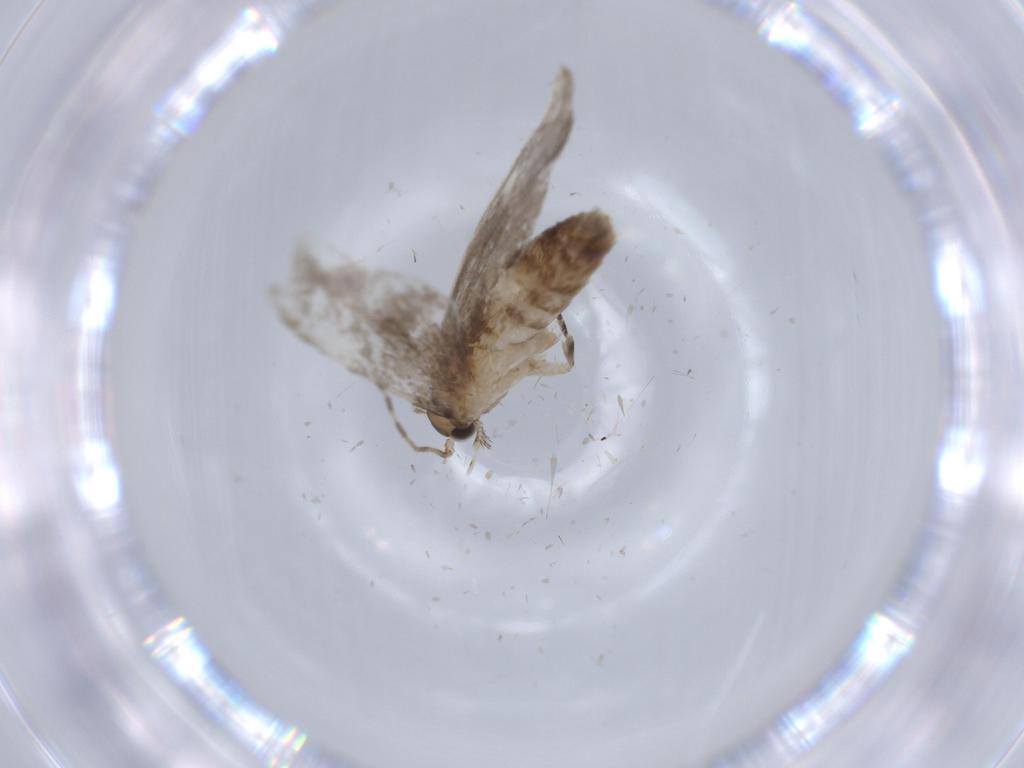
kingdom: Animalia
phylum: Arthropoda
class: Insecta
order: Lepidoptera
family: Tineidae
